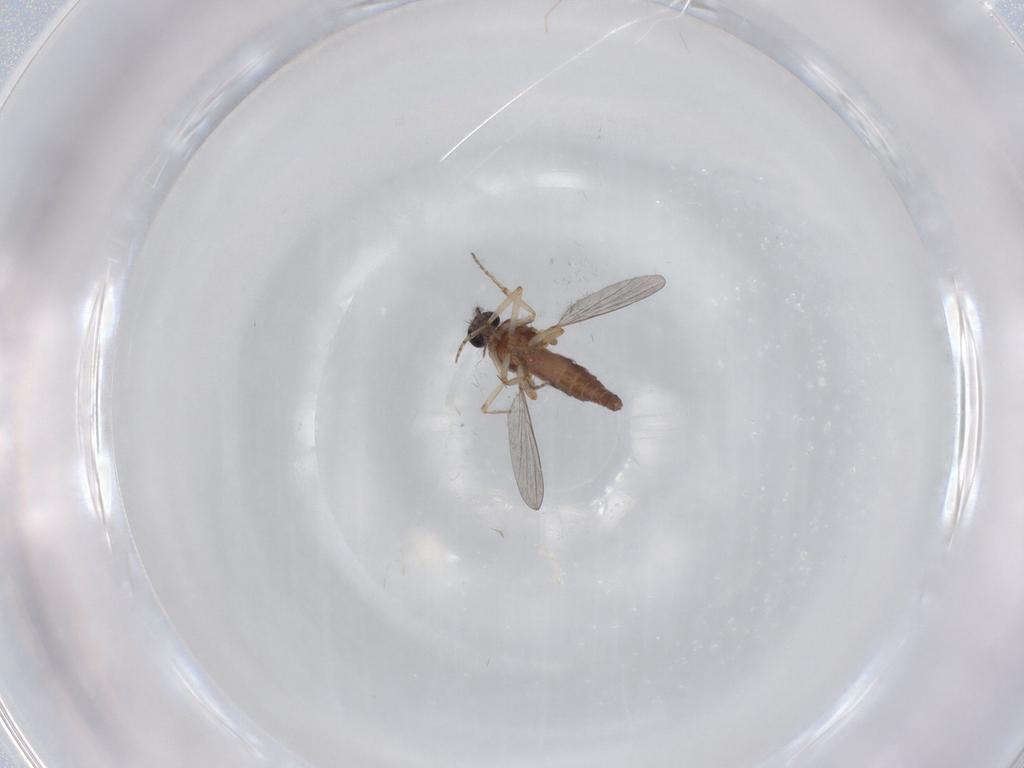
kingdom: Animalia
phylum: Arthropoda
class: Insecta
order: Diptera
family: Ceratopogonidae
